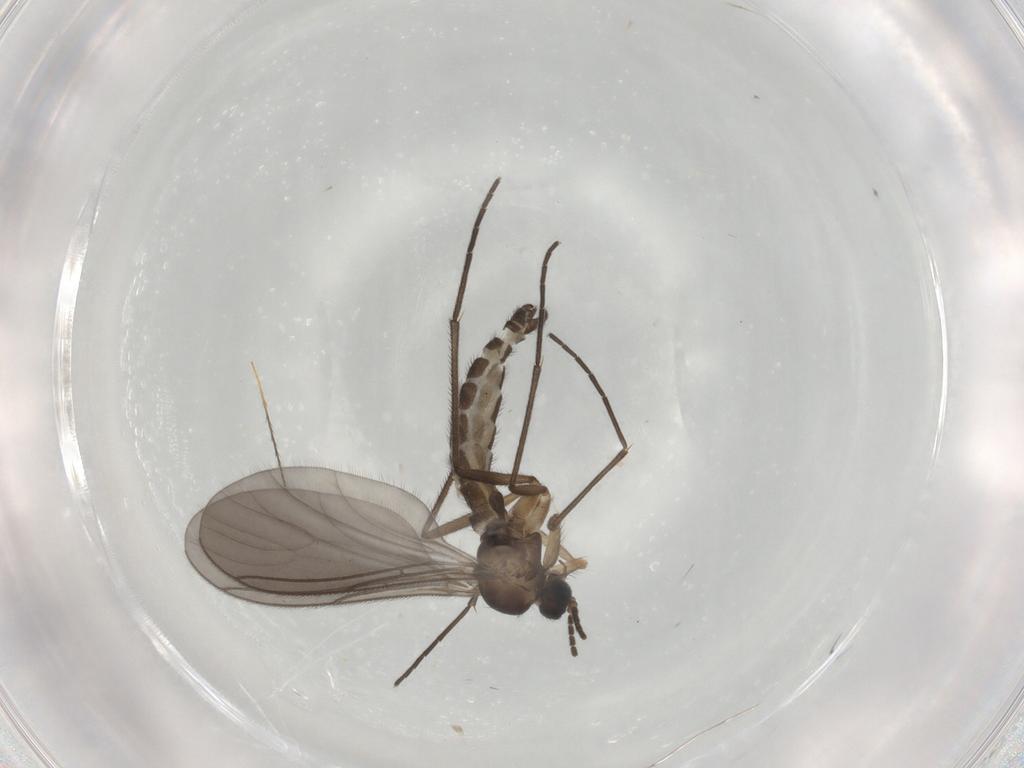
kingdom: Animalia
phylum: Arthropoda
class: Insecta
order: Diptera
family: Sciaridae
